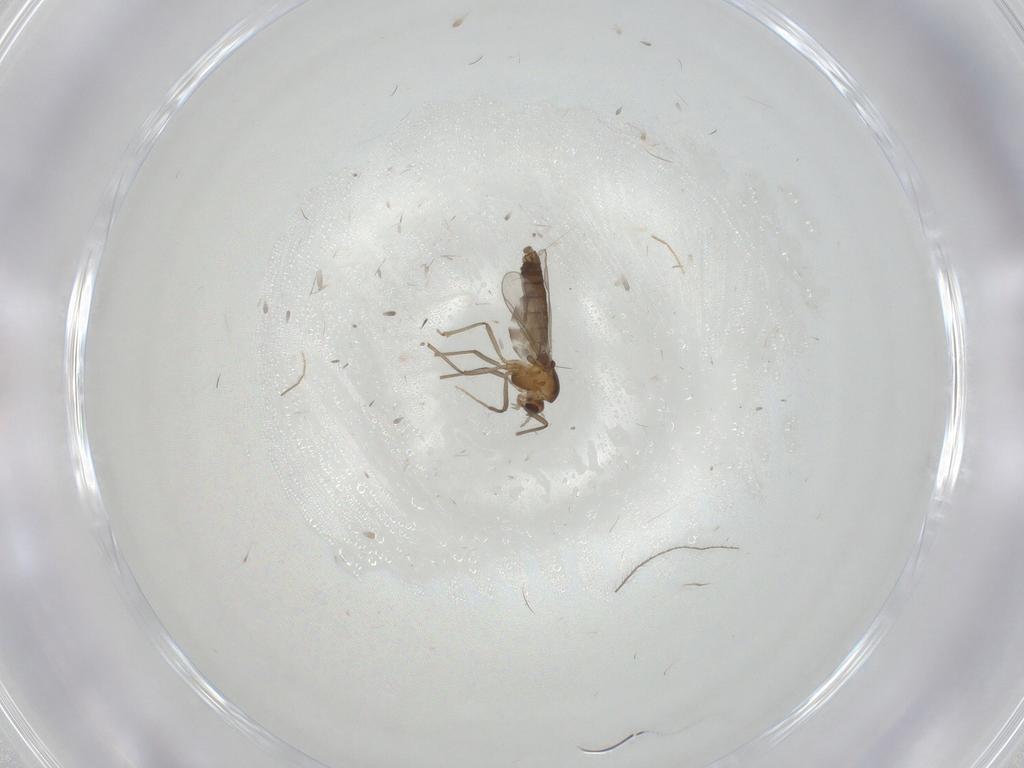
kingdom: Animalia
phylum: Arthropoda
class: Insecta
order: Diptera
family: Chironomidae
